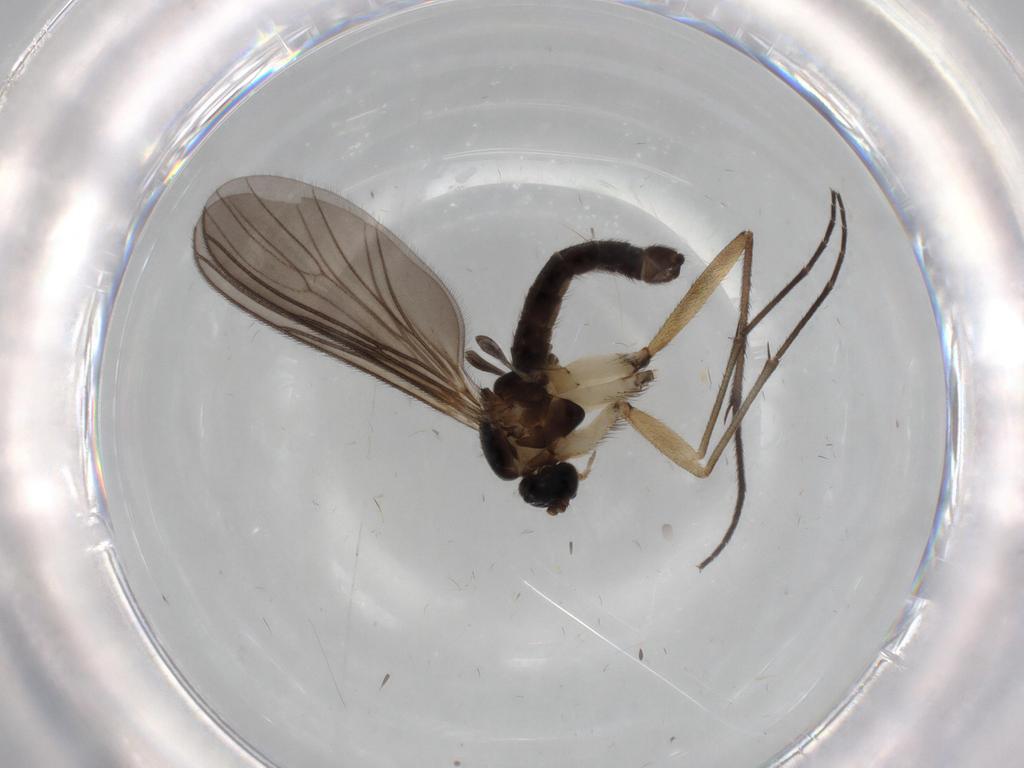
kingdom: Animalia
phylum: Arthropoda
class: Insecta
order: Diptera
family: Sciaridae
